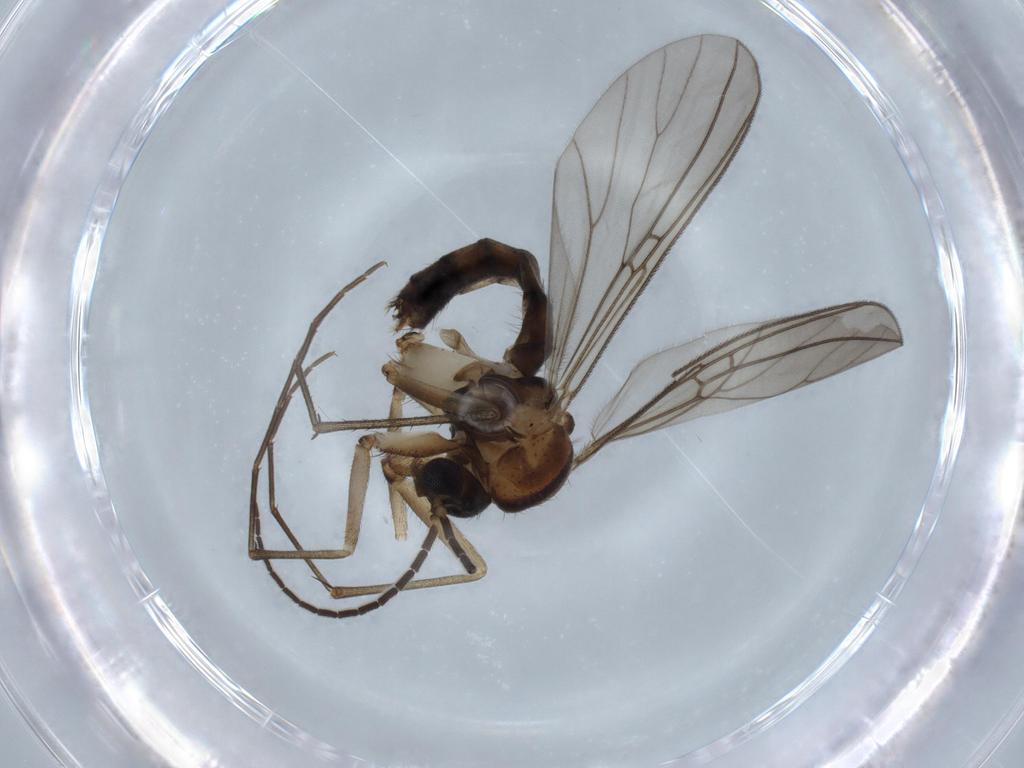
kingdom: Animalia
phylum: Arthropoda
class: Insecta
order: Diptera
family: Mycetophilidae
